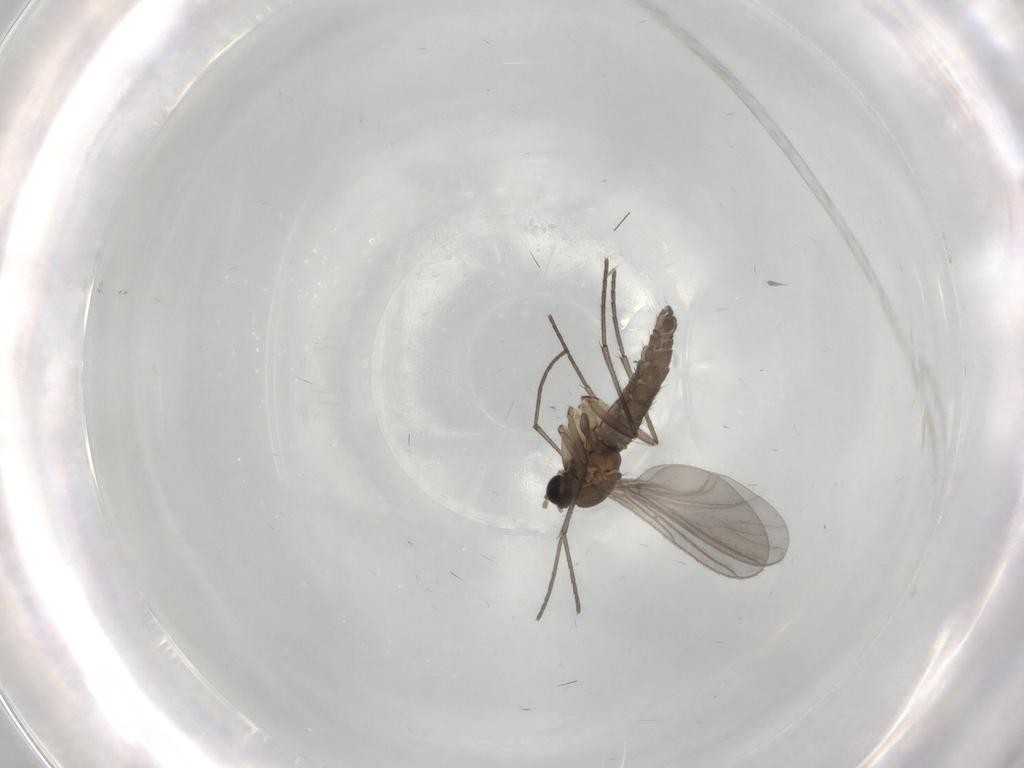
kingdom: Animalia
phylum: Arthropoda
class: Insecta
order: Diptera
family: Sciaridae
